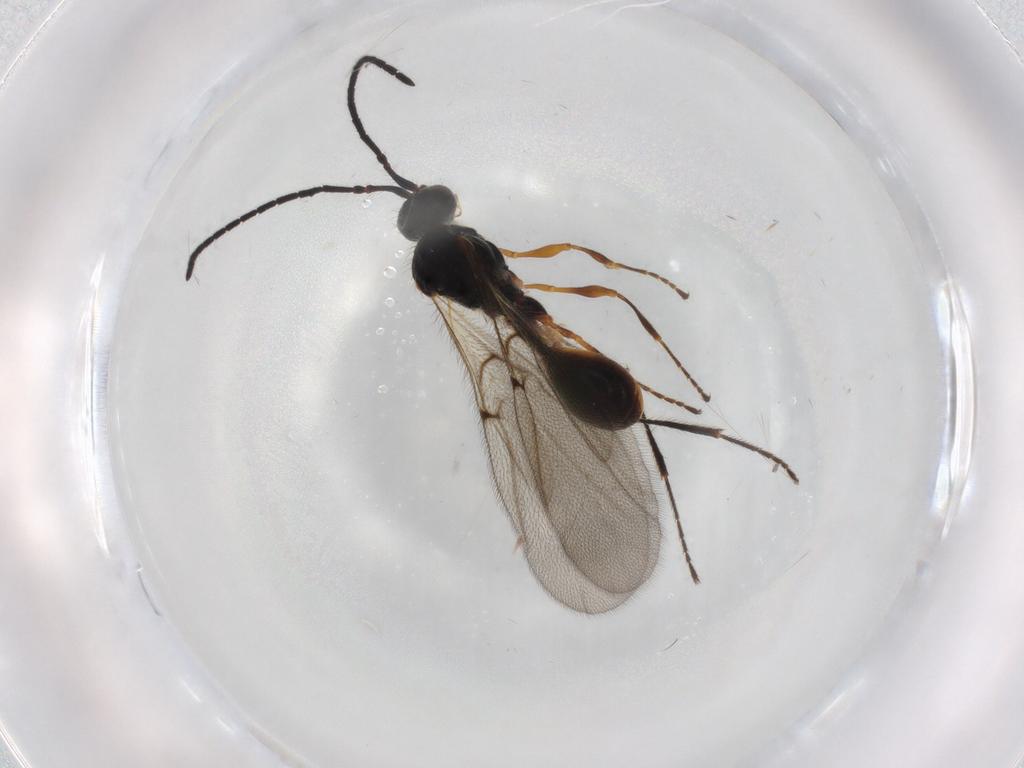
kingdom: Animalia
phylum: Arthropoda
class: Insecta
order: Hymenoptera
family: Diapriidae
